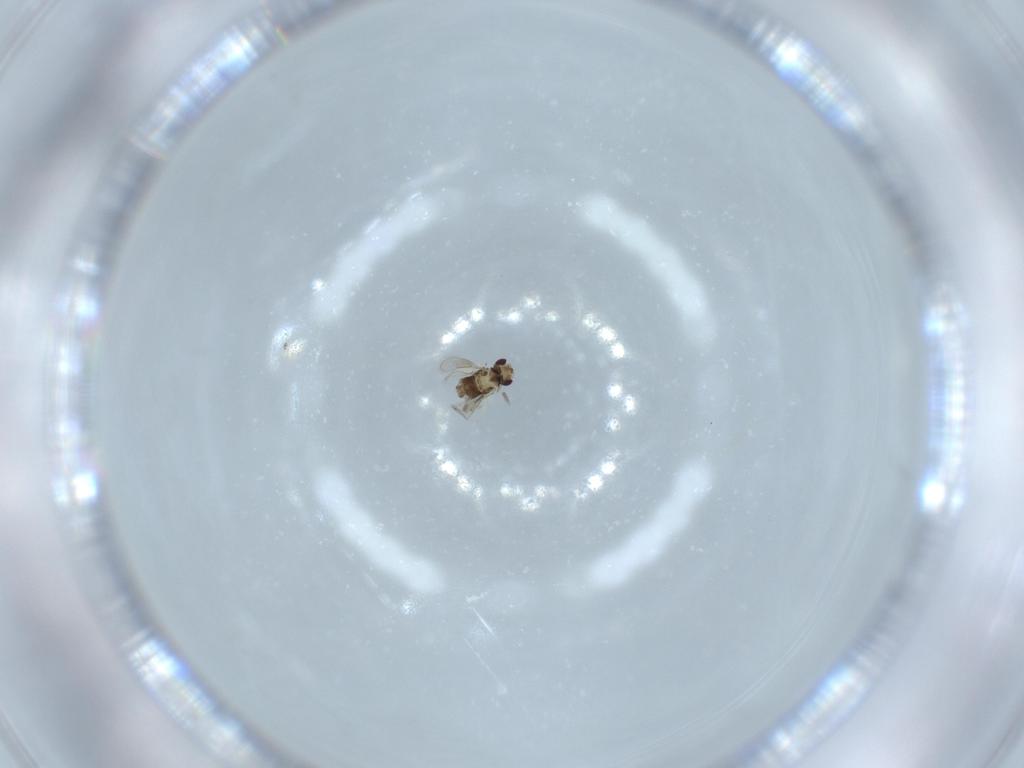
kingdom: Animalia
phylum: Arthropoda
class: Insecta
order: Hymenoptera
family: Aphelinidae
